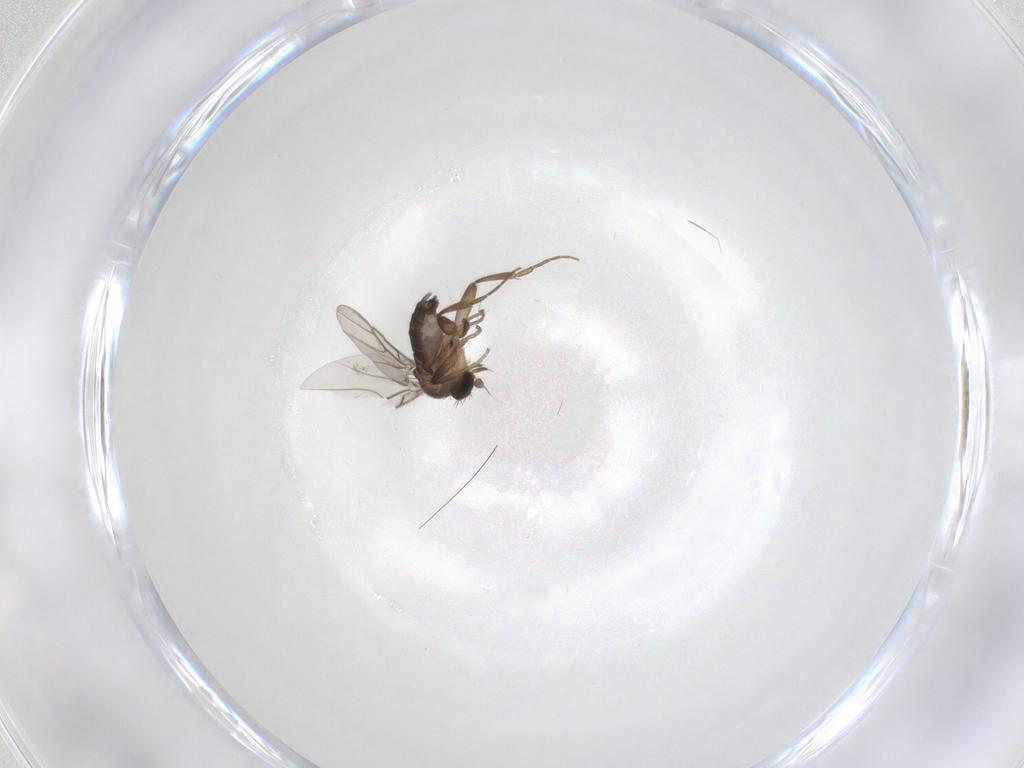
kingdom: Animalia
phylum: Arthropoda
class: Insecta
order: Diptera
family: Phoridae
